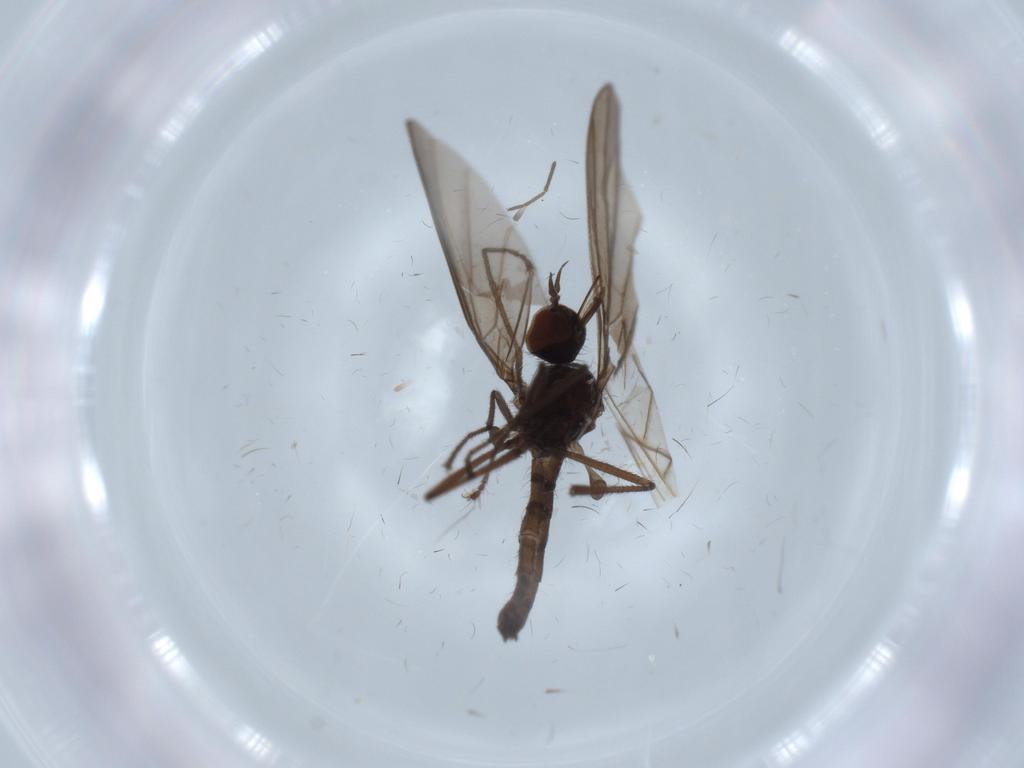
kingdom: Animalia
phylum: Arthropoda
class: Insecta
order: Diptera
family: Empididae
